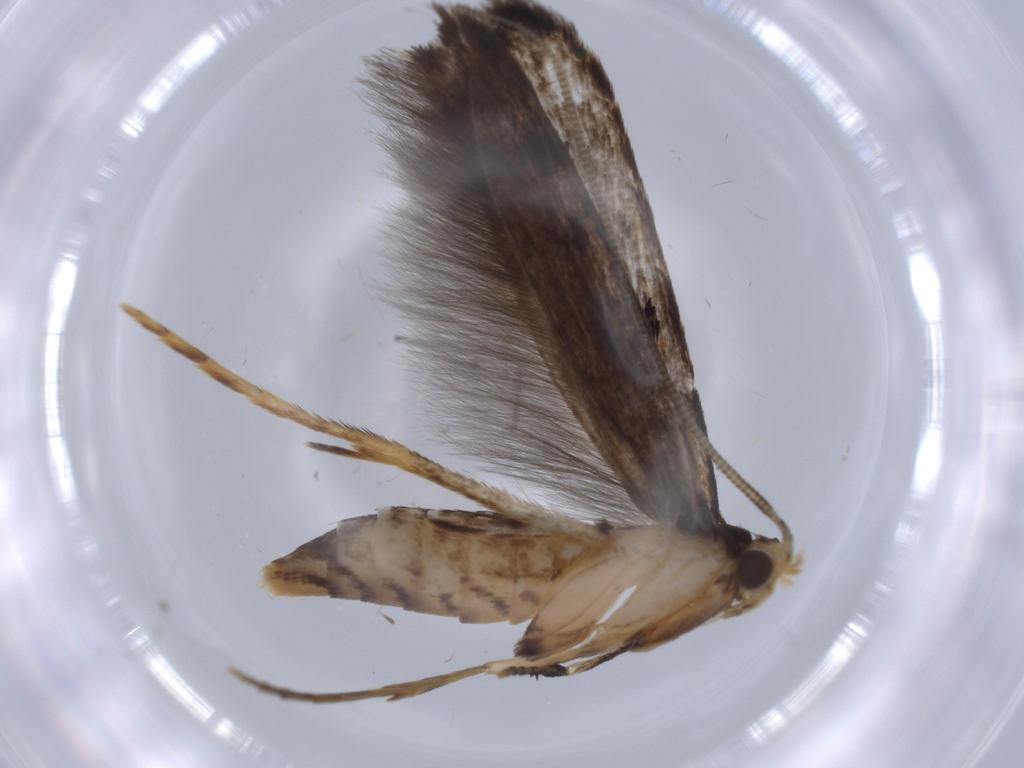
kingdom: Animalia
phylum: Arthropoda
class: Insecta
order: Lepidoptera
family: Tineidae
